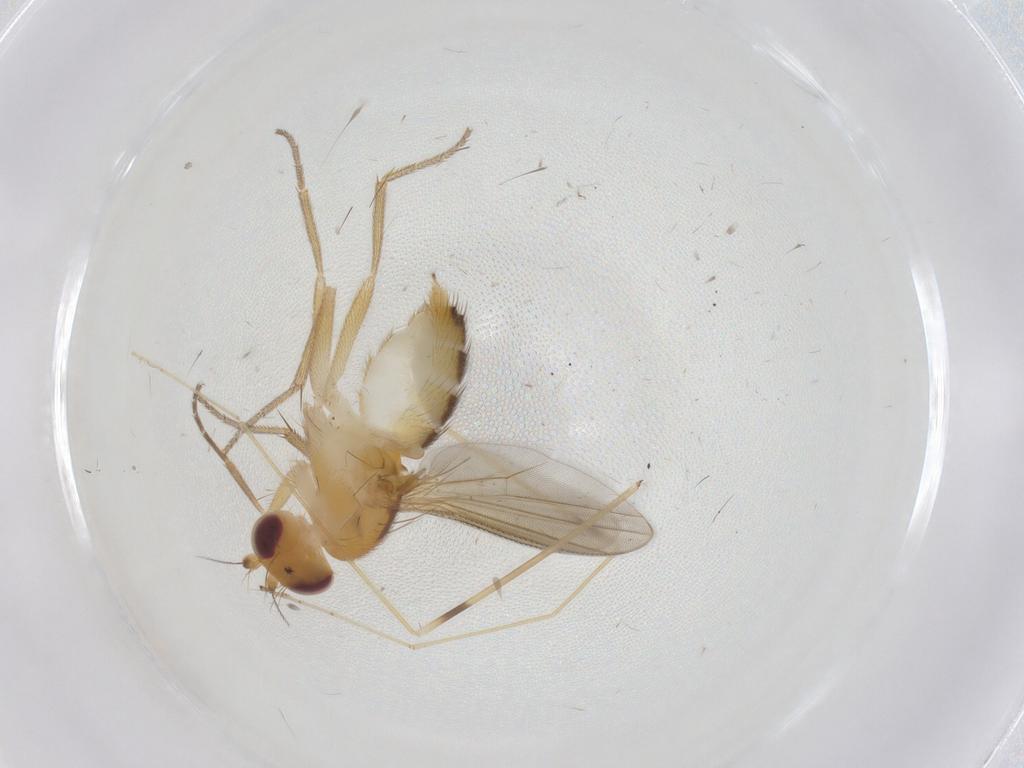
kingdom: Animalia
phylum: Arthropoda
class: Insecta
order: Diptera
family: Clusiidae
